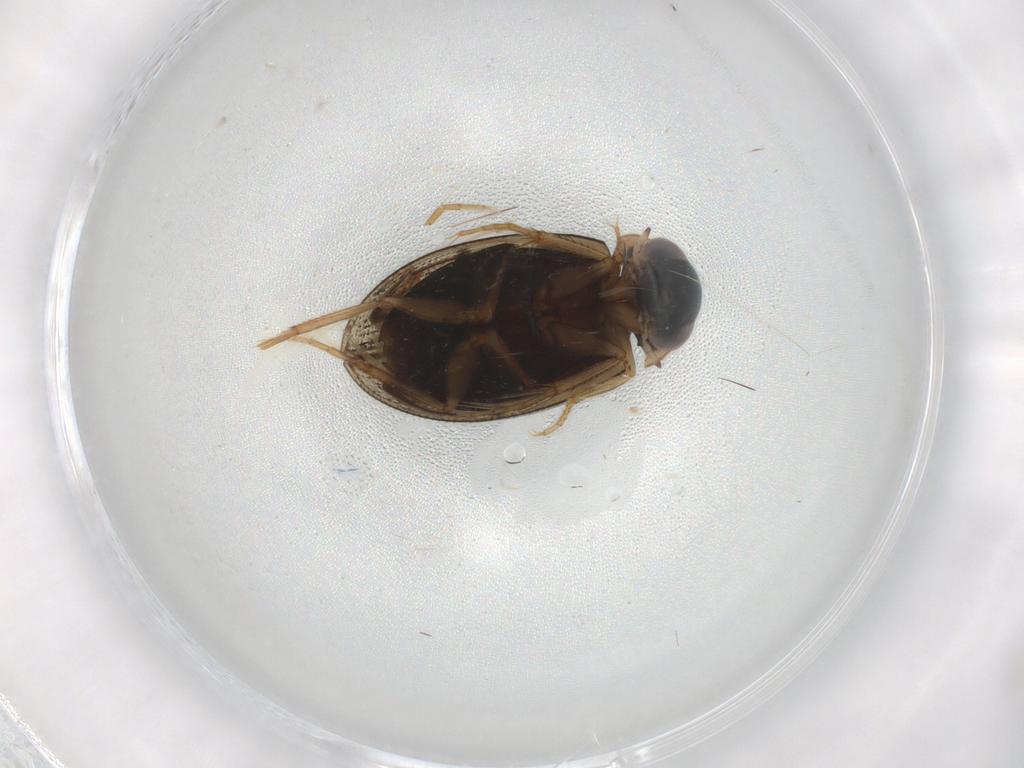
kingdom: Animalia
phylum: Arthropoda
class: Insecta
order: Coleoptera
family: Hydrophilidae
